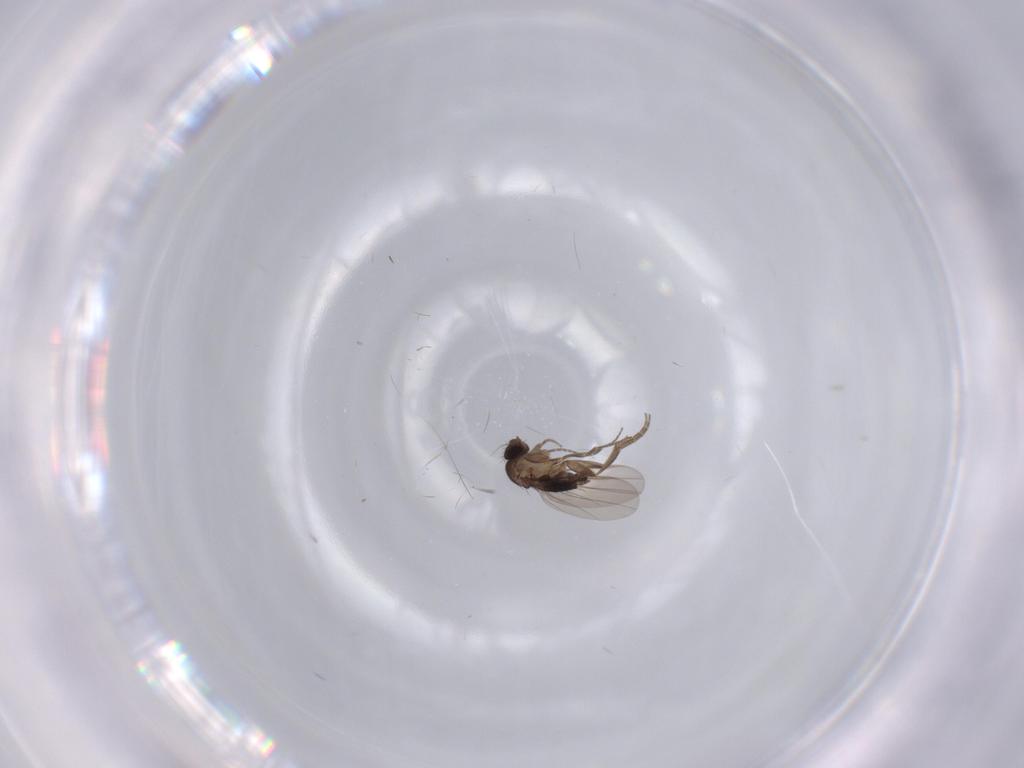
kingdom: Animalia
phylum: Arthropoda
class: Insecta
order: Diptera
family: Phoridae
